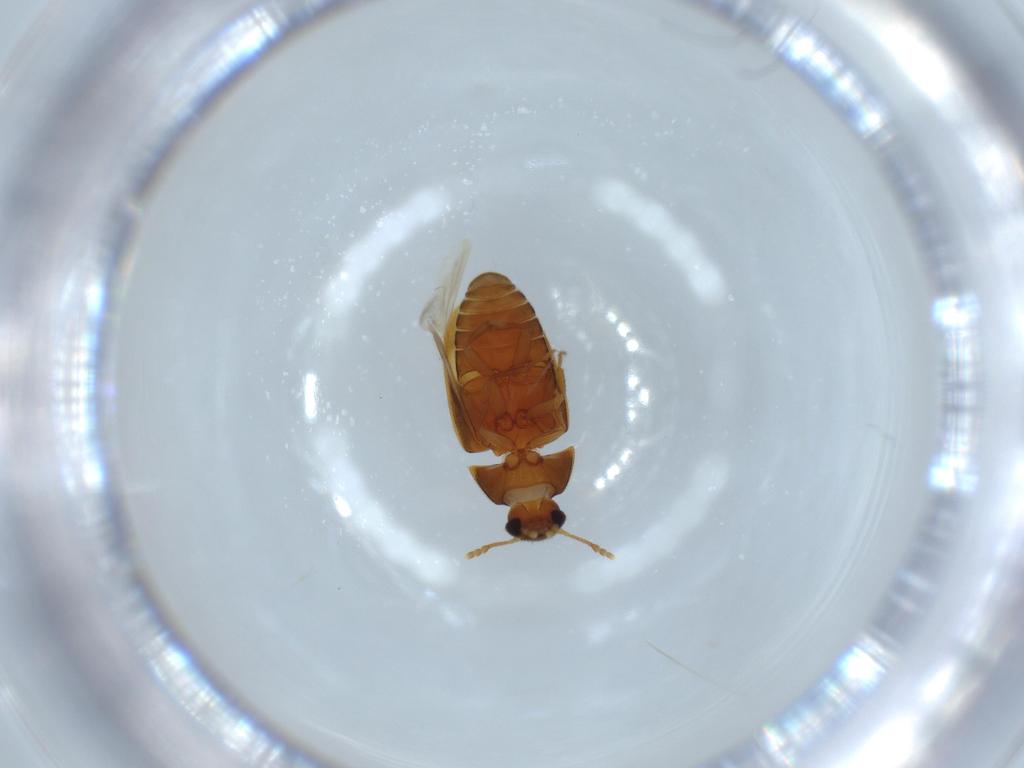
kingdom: Animalia
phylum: Arthropoda
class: Insecta
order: Coleoptera
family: Mycetophagidae
